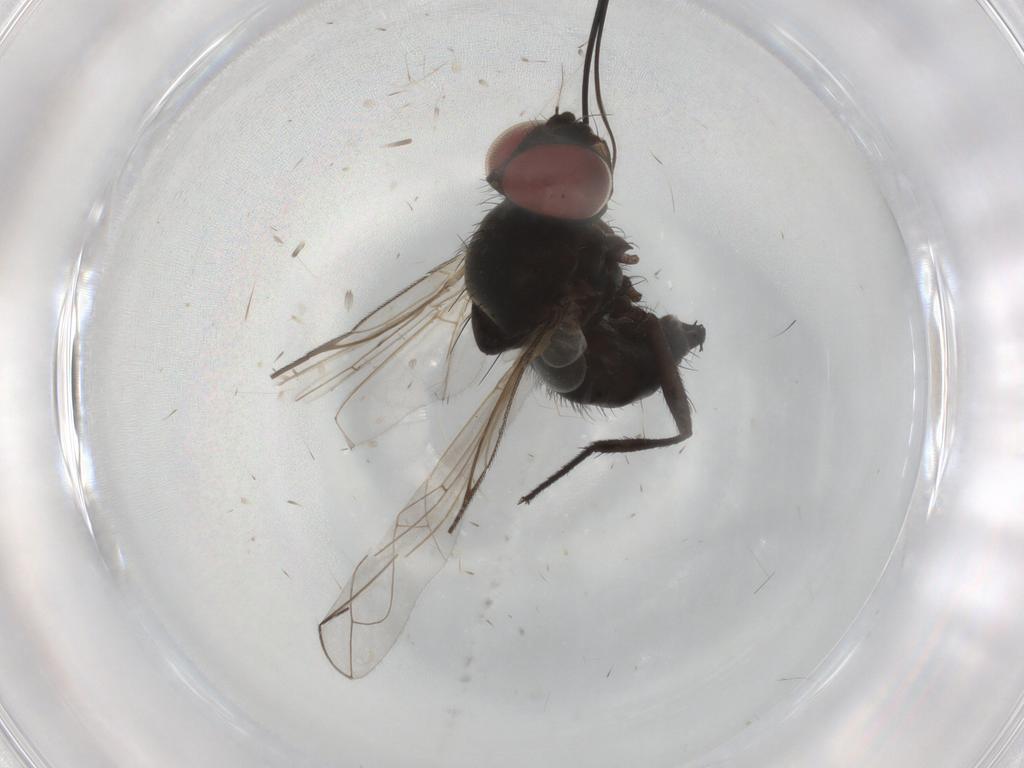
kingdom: Animalia
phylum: Arthropoda
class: Insecta
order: Diptera
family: Tachinidae
